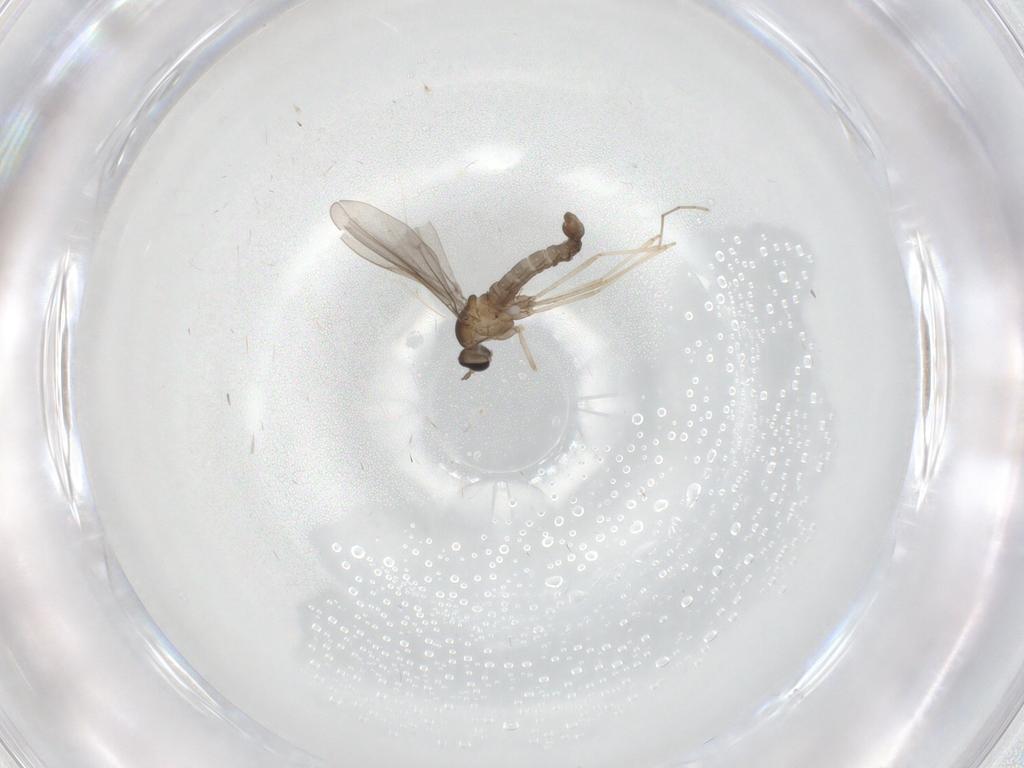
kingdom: Animalia
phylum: Arthropoda
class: Insecta
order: Diptera
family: Cecidomyiidae
